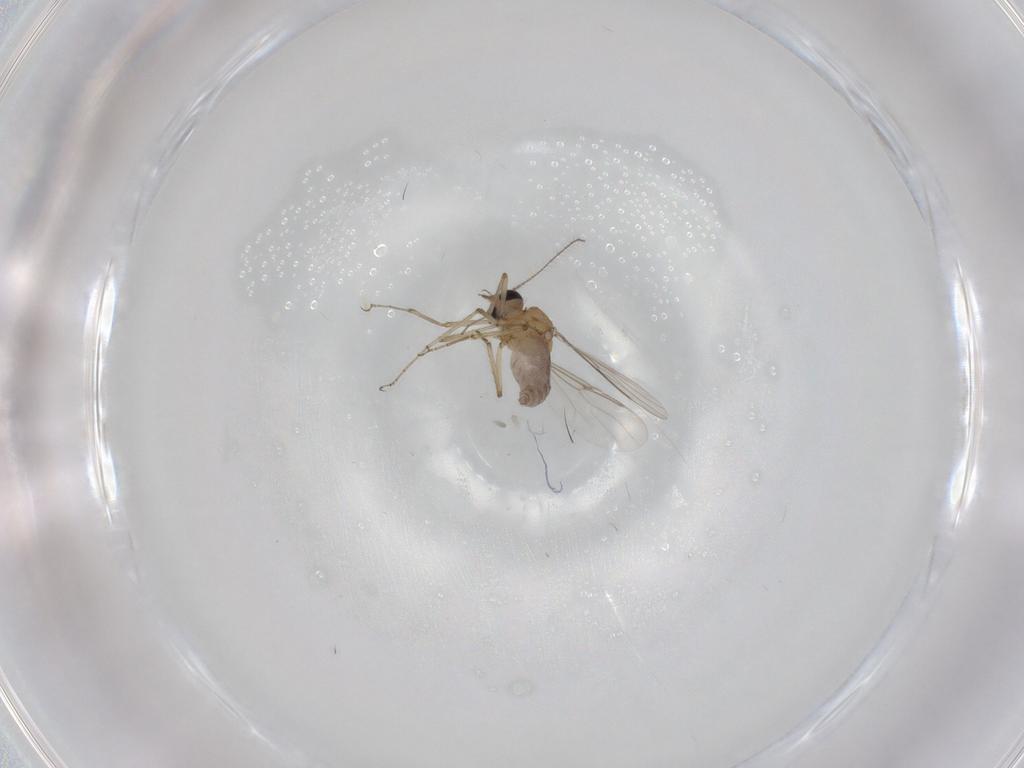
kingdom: Animalia
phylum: Arthropoda
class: Insecta
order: Diptera
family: Ceratopogonidae
